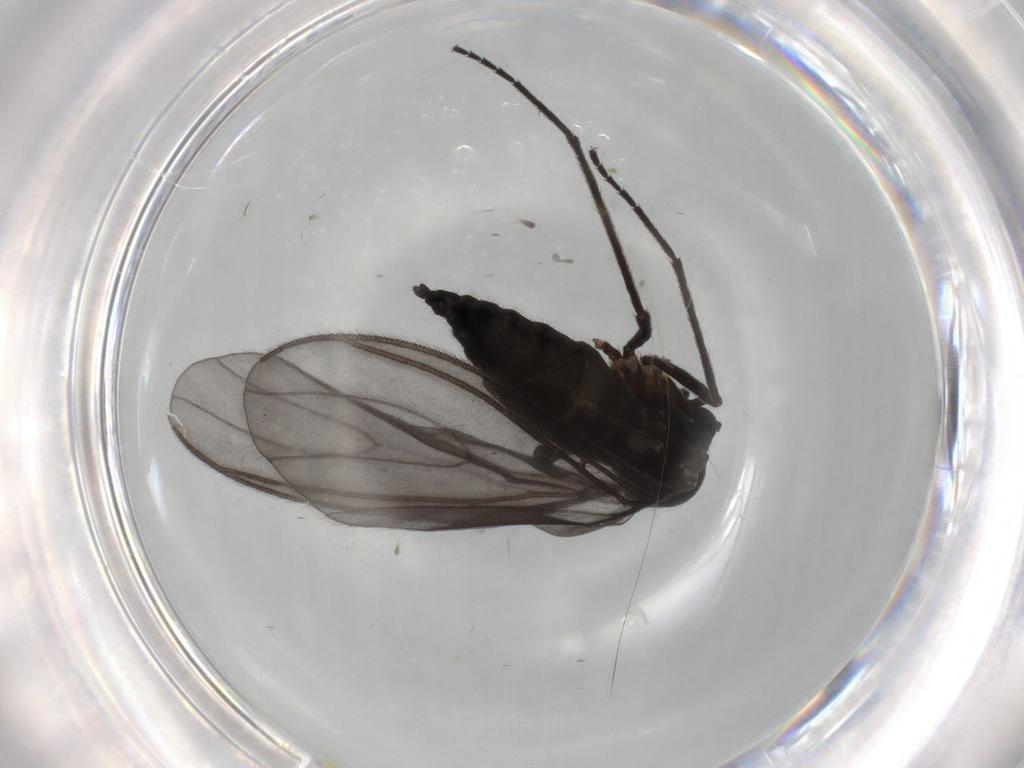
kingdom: Animalia
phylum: Arthropoda
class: Insecta
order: Diptera
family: Sciaridae
